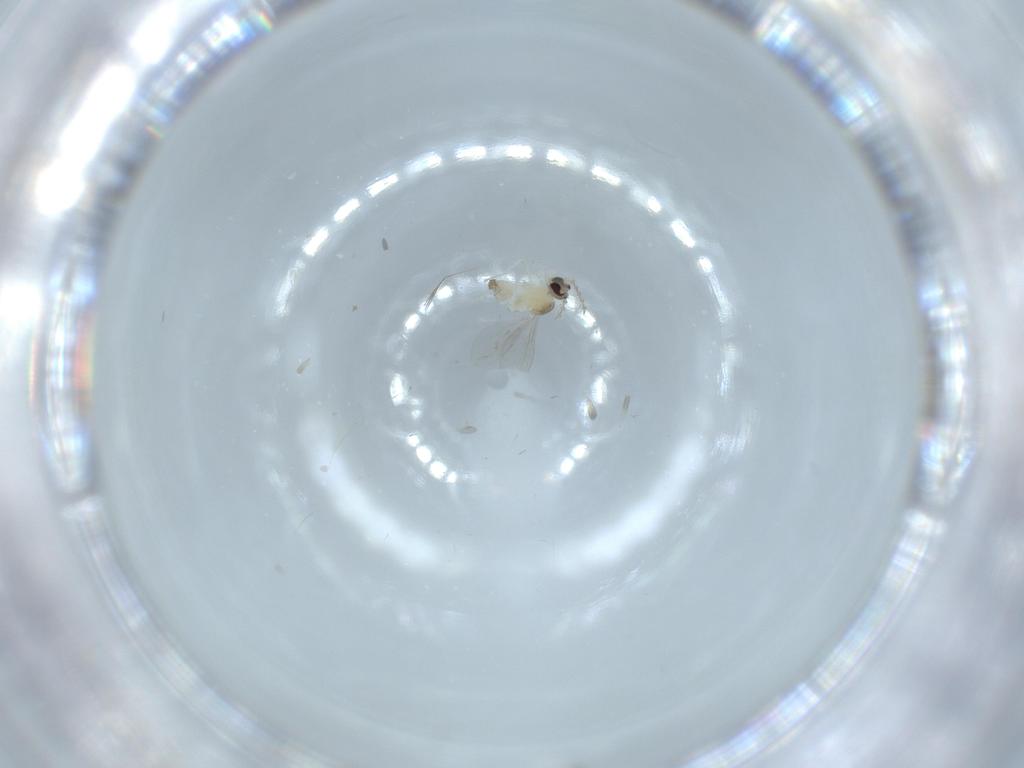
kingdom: Animalia
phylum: Arthropoda
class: Insecta
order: Diptera
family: Cecidomyiidae
